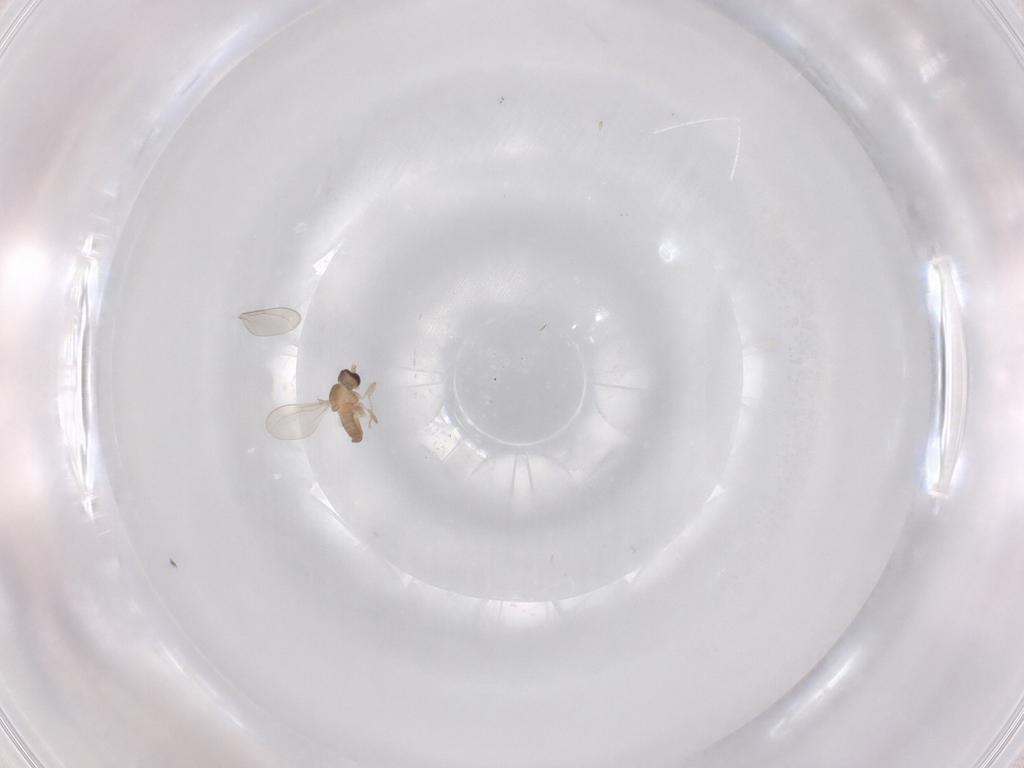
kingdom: Animalia
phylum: Arthropoda
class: Insecta
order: Diptera
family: Cecidomyiidae
